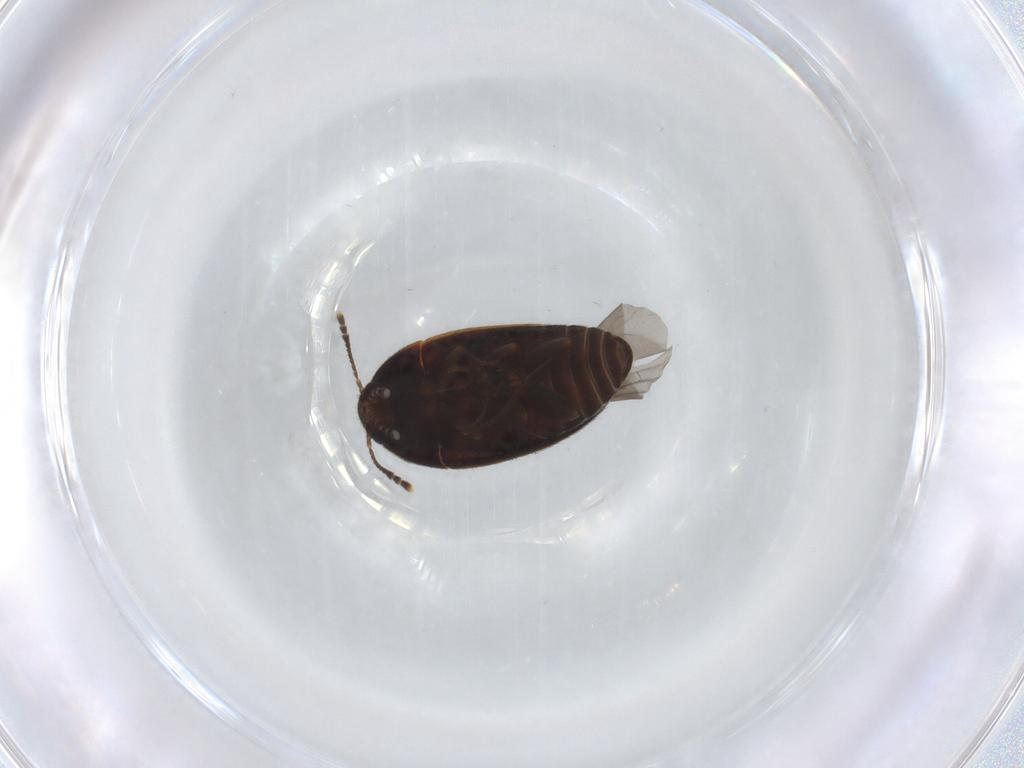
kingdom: Animalia
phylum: Arthropoda
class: Insecta
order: Coleoptera
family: Mycetophagidae
